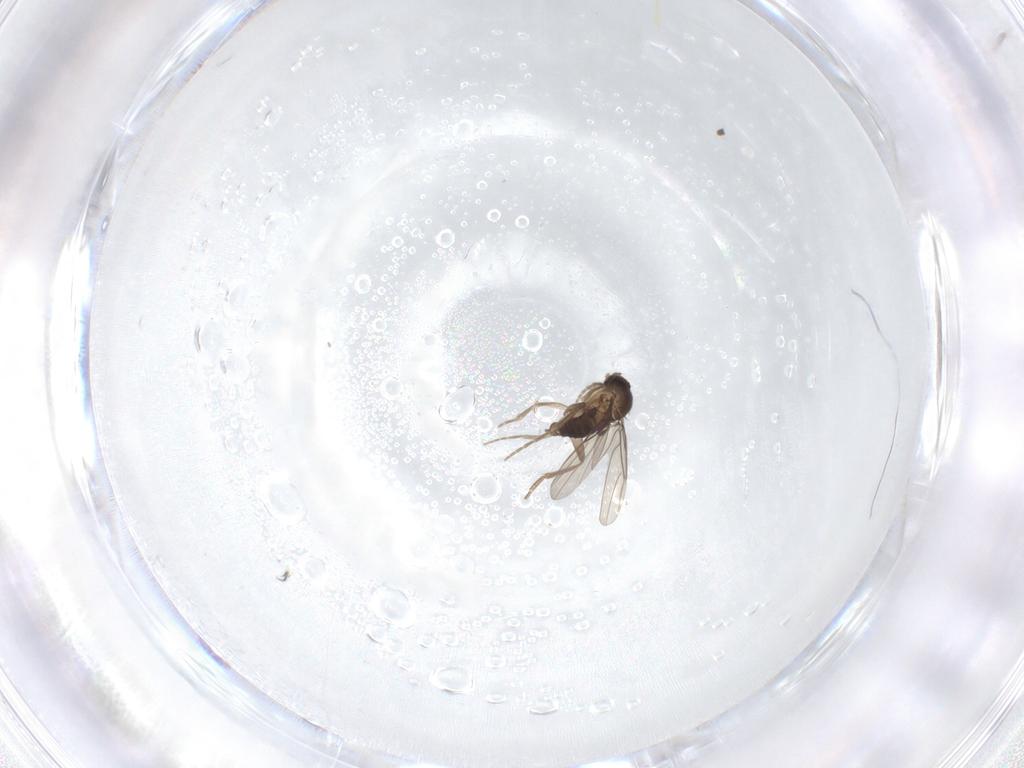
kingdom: Animalia
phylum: Arthropoda
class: Insecta
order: Diptera
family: Phoridae
